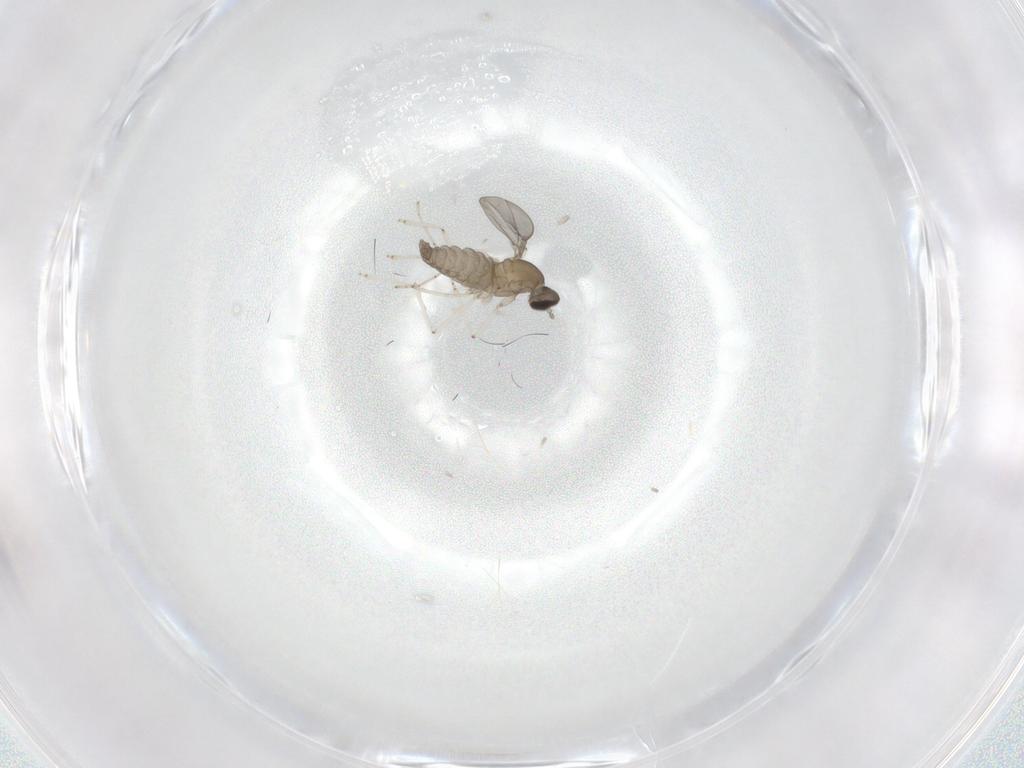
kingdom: Animalia
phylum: Arthropoda
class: Insecta
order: Diptera
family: Cecidomyiidae
